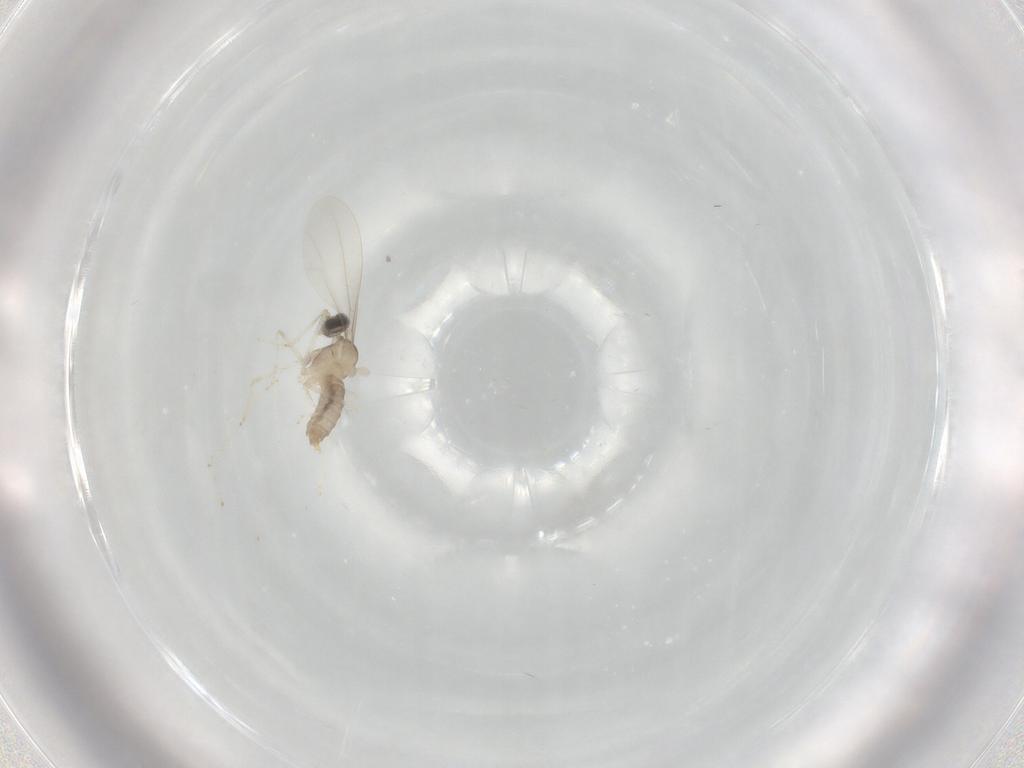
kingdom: Animalia
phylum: Arthropoda
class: Insecta
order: Diptera
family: Cecidomyiidae
